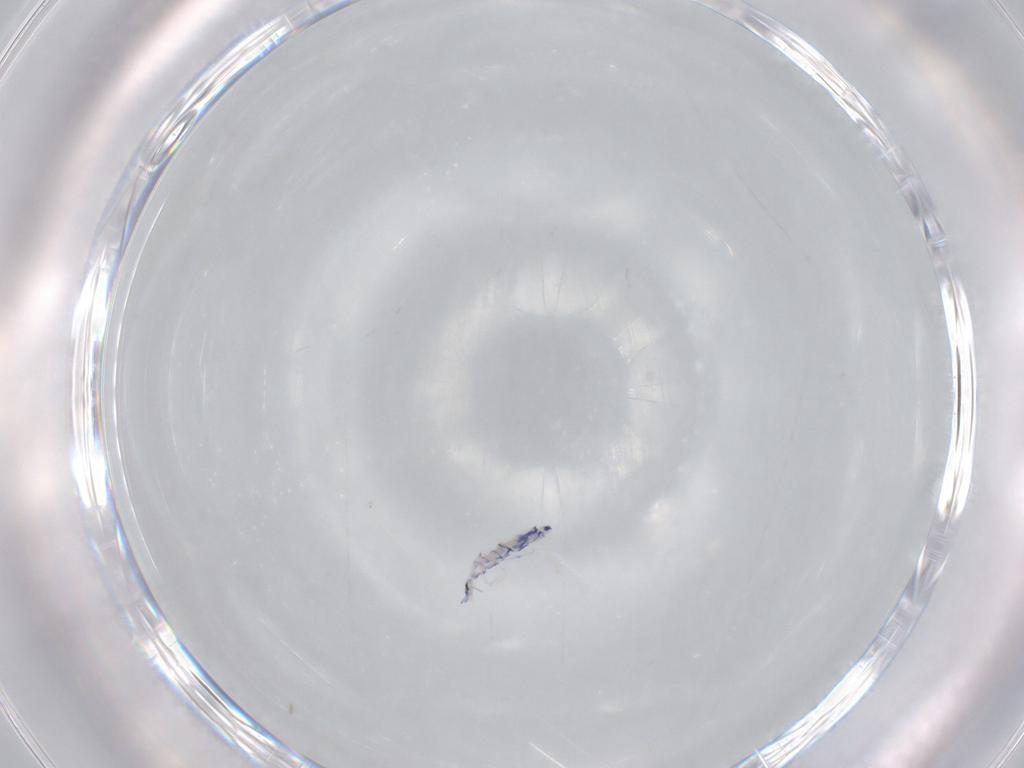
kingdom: Animalia
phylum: Arthropoda
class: Collembola
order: Entomobryomorpha
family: Entomobryidae
